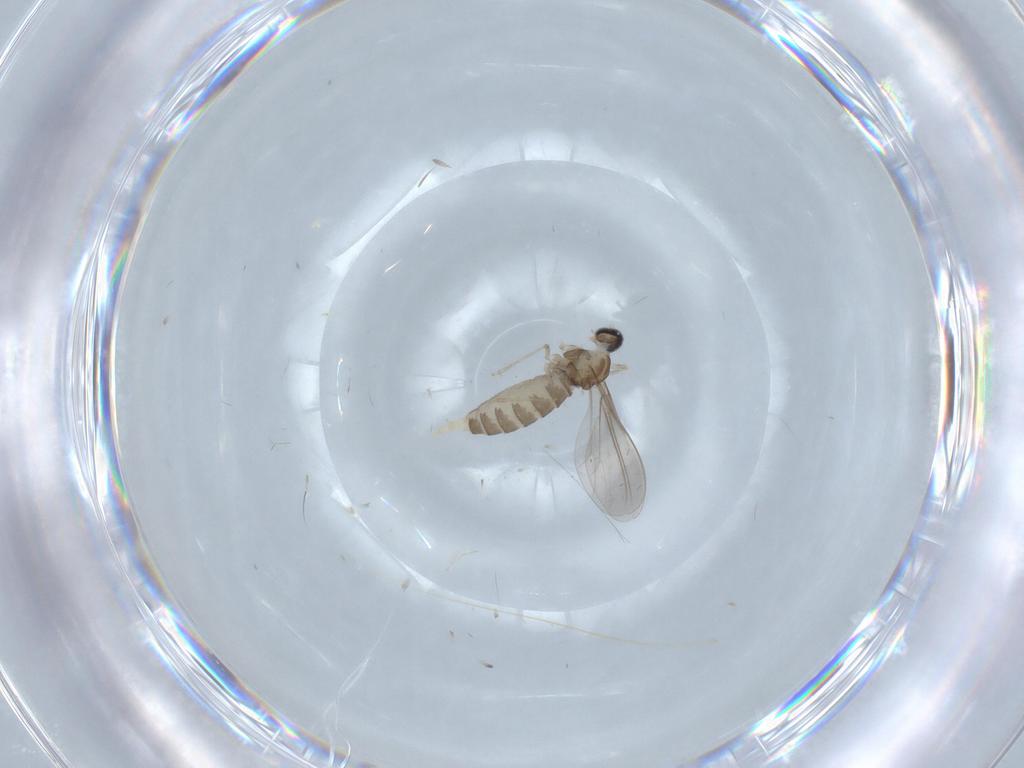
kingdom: Animalia
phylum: Arthropoda
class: Insecta
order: Diptera
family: Cecidomyiidae
